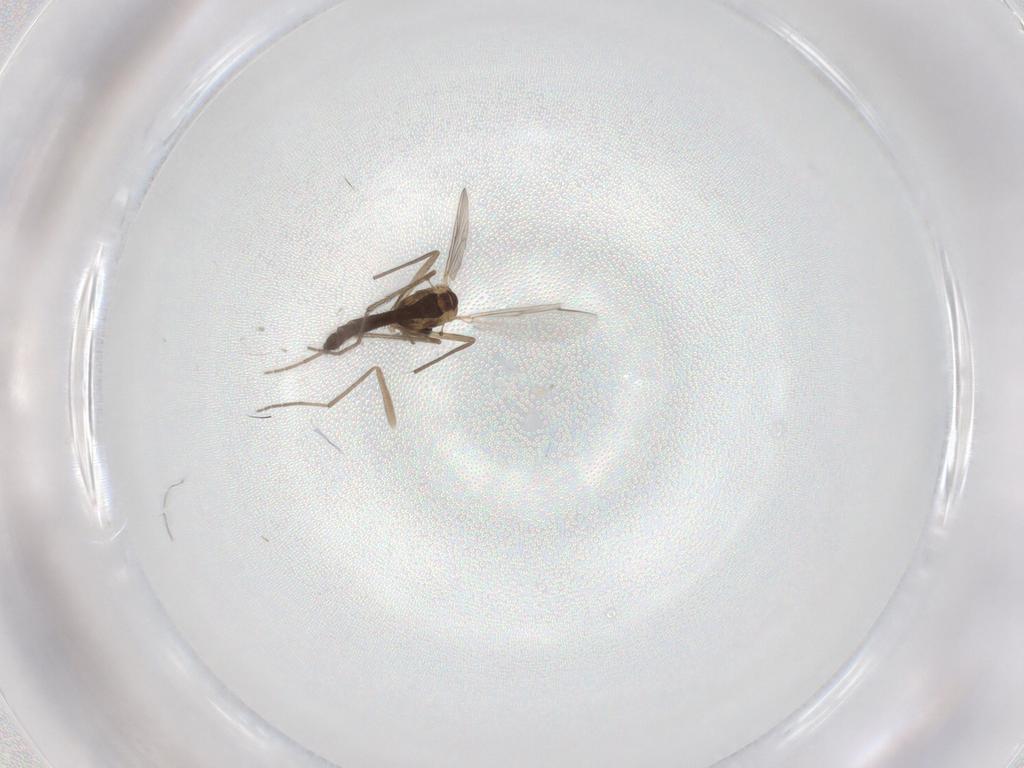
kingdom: Animalia
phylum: Arthropoda
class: Insecta
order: Diptera
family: Chironomidae
